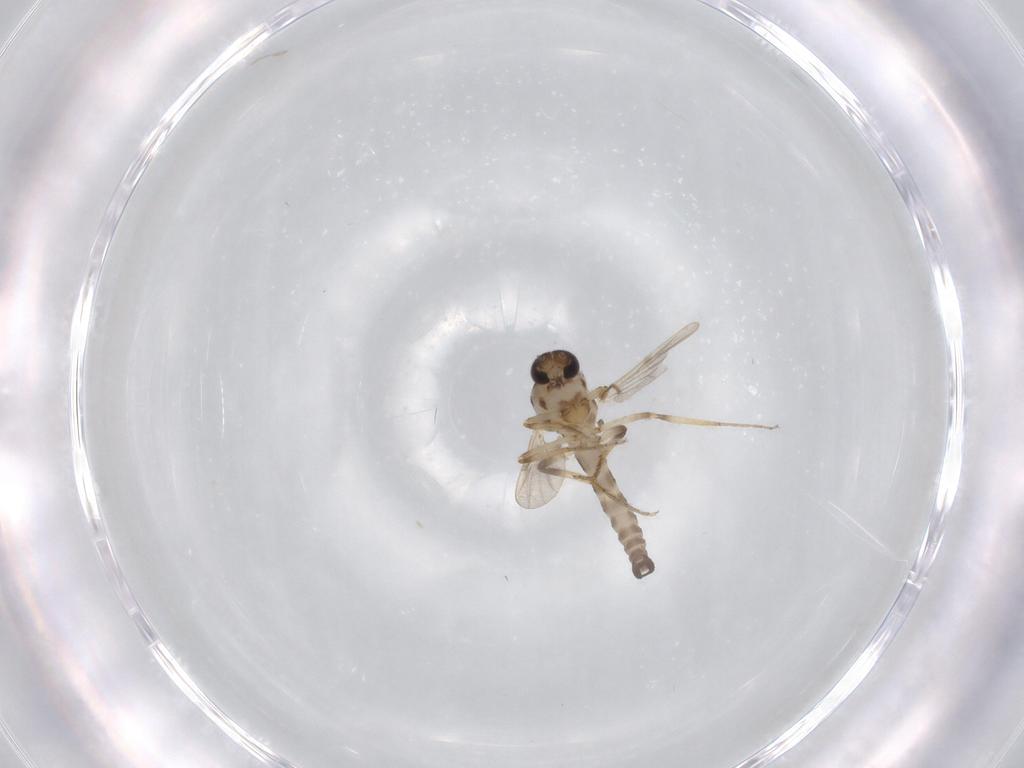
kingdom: Animalia
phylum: Arthropoda
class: Insecta
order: Diptera
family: Ceratopogonidae
